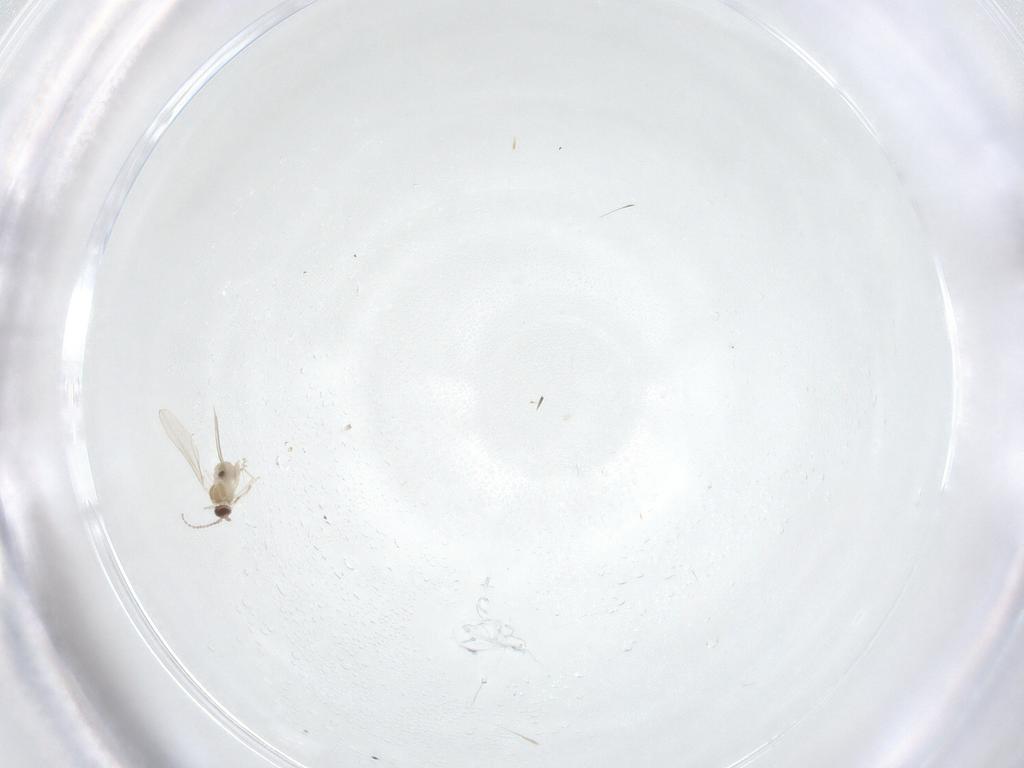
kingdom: Animalia
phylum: Arthropoda
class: Insecta
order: Diptera
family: Cecidomyiidae
